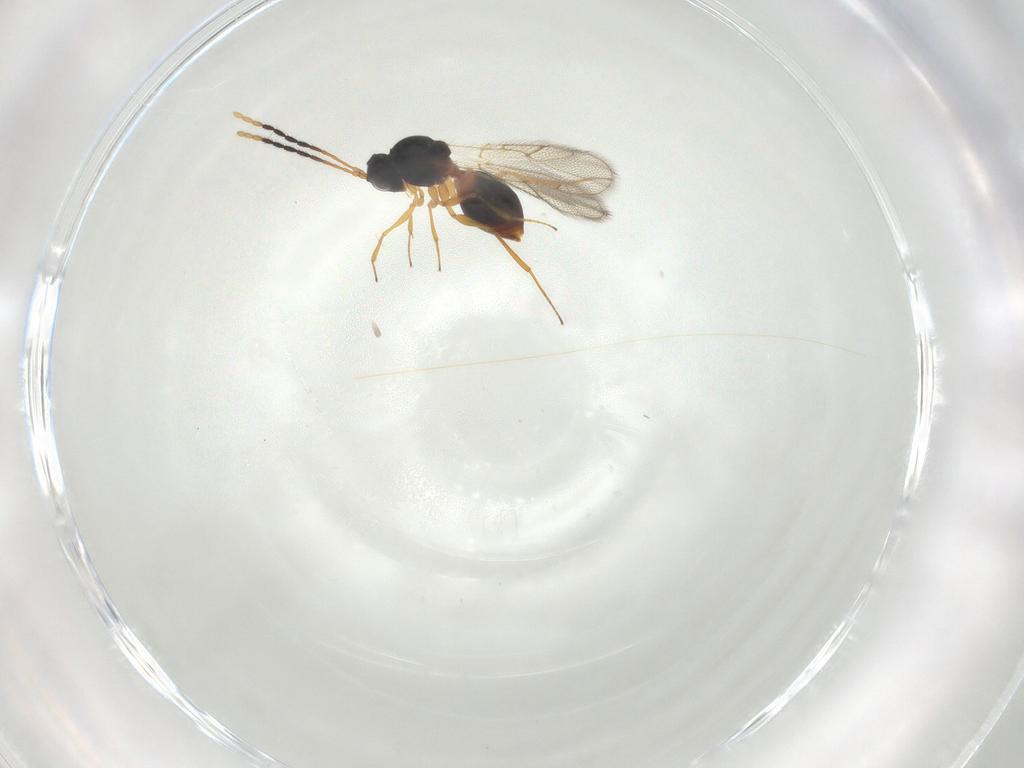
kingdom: Animalia
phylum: Arthropoda
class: Insecta
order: Hymenoptera
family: Figitidae
